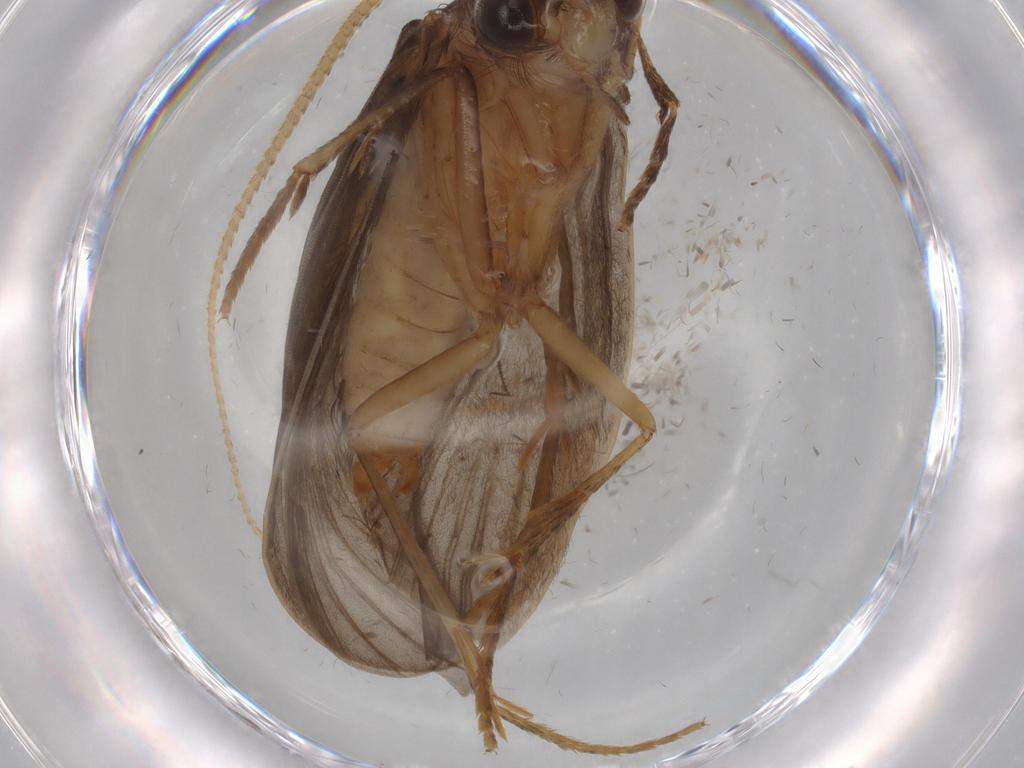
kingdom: Animalia
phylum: Arthropoda
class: Insecta
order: Trichoptera
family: Lepidostomatidae
